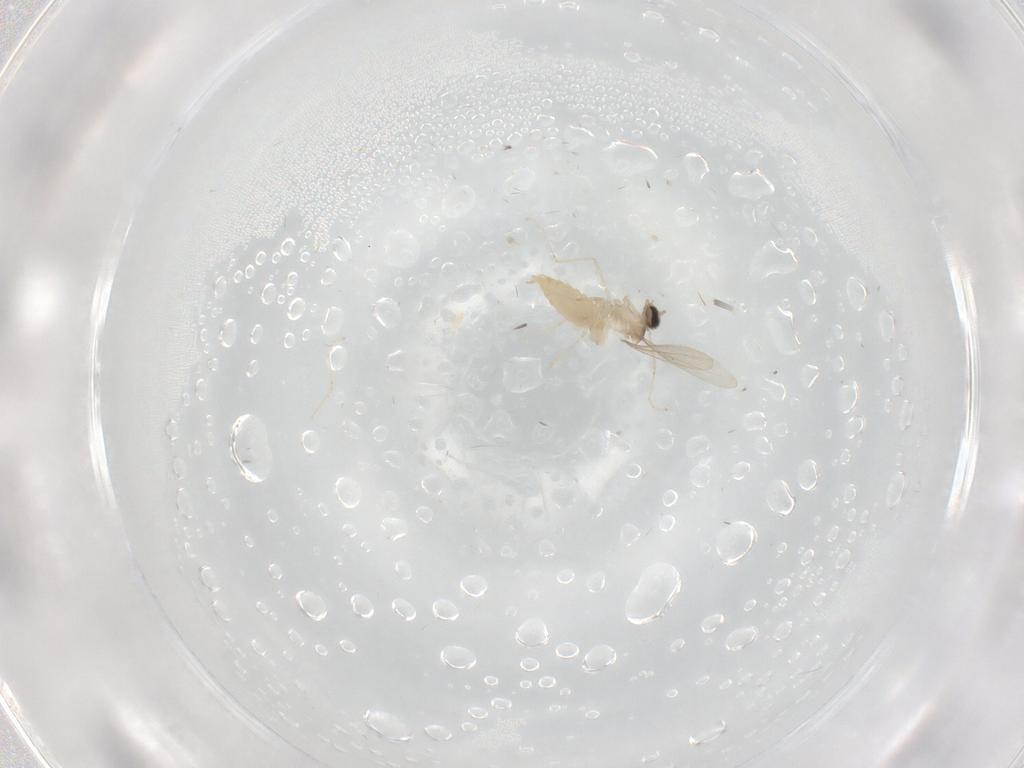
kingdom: Animalia
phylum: Arthropoda
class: Insecta
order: Diptera
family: Cecidomyiidae
